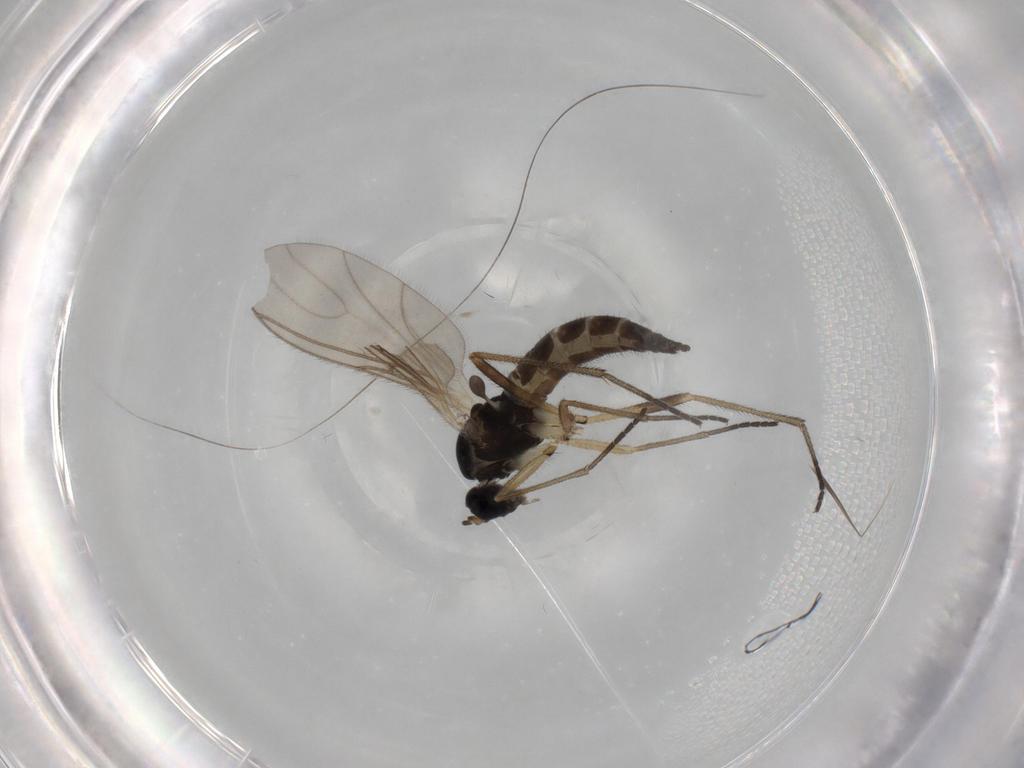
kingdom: Animalia
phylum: Arthropoda
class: Insecta
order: Diptera
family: Sciaridae
